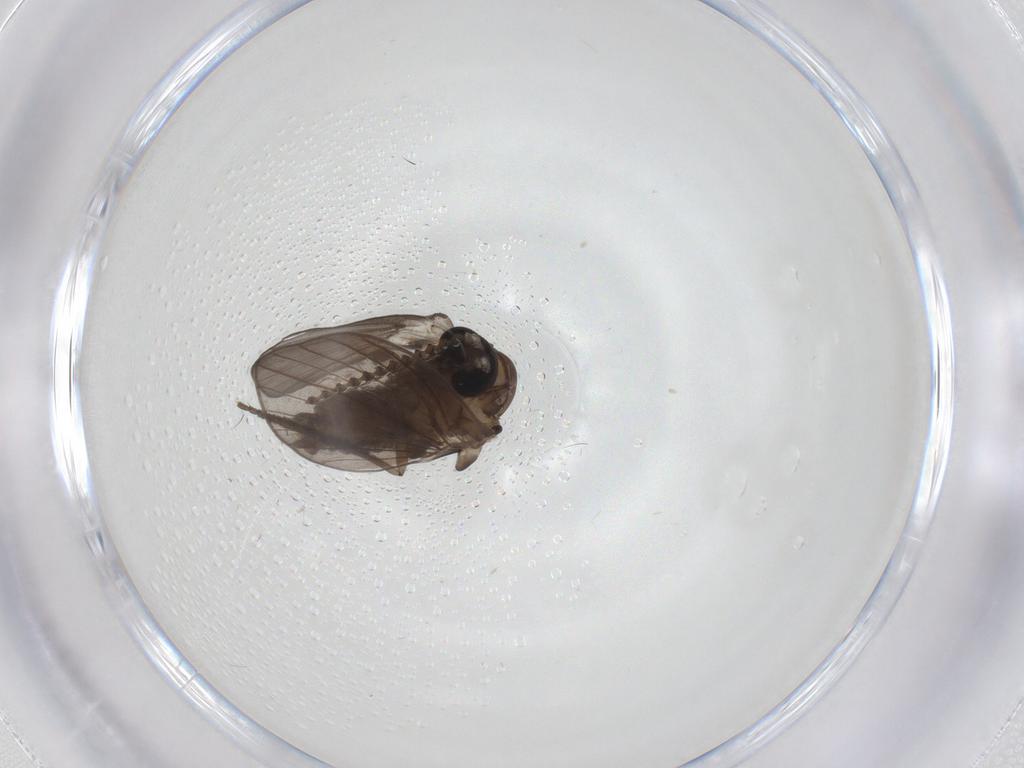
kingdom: Animalia
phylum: Arthropoda
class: Insecta
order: Diptera
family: Psychodidae
